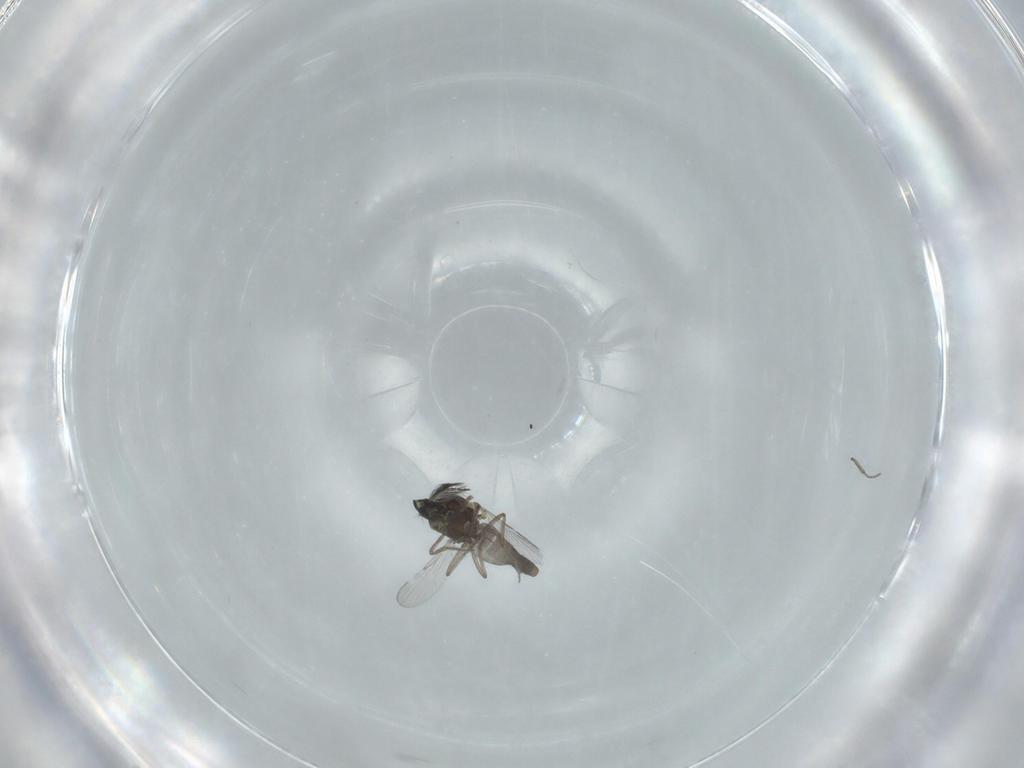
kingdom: Animalia
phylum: Arthropoda
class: Insecta
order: Diptera
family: Ceratopogonidae
